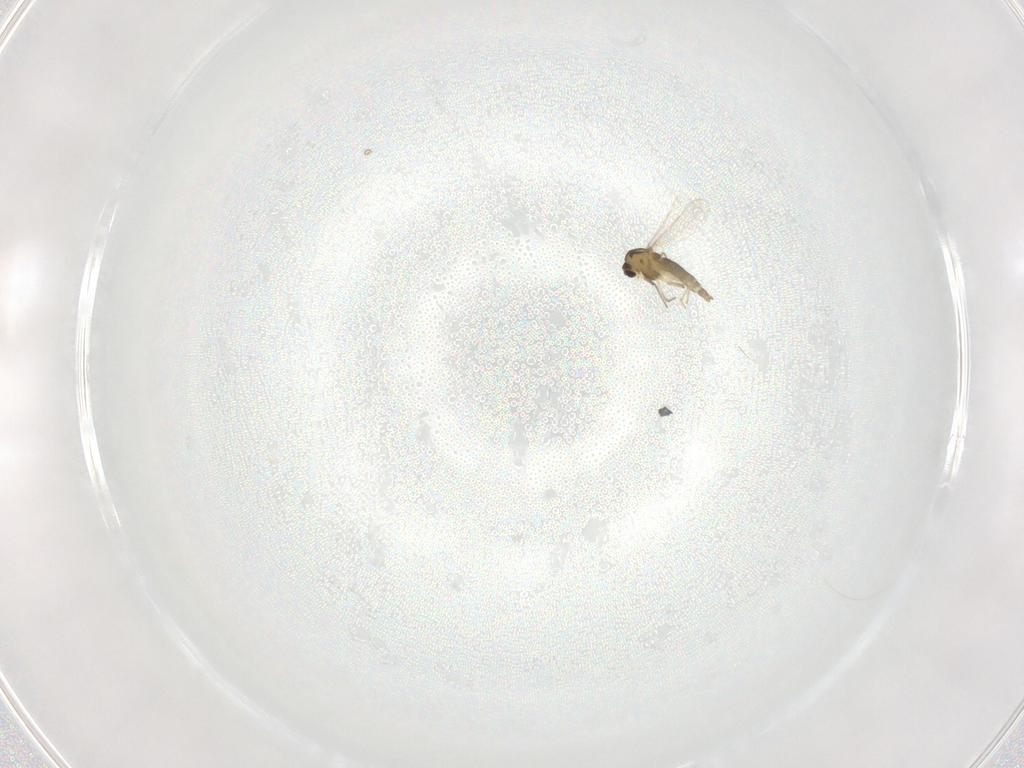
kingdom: Animalia
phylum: Arthropoda
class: Insecta
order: Diptera
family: Chironomidae
